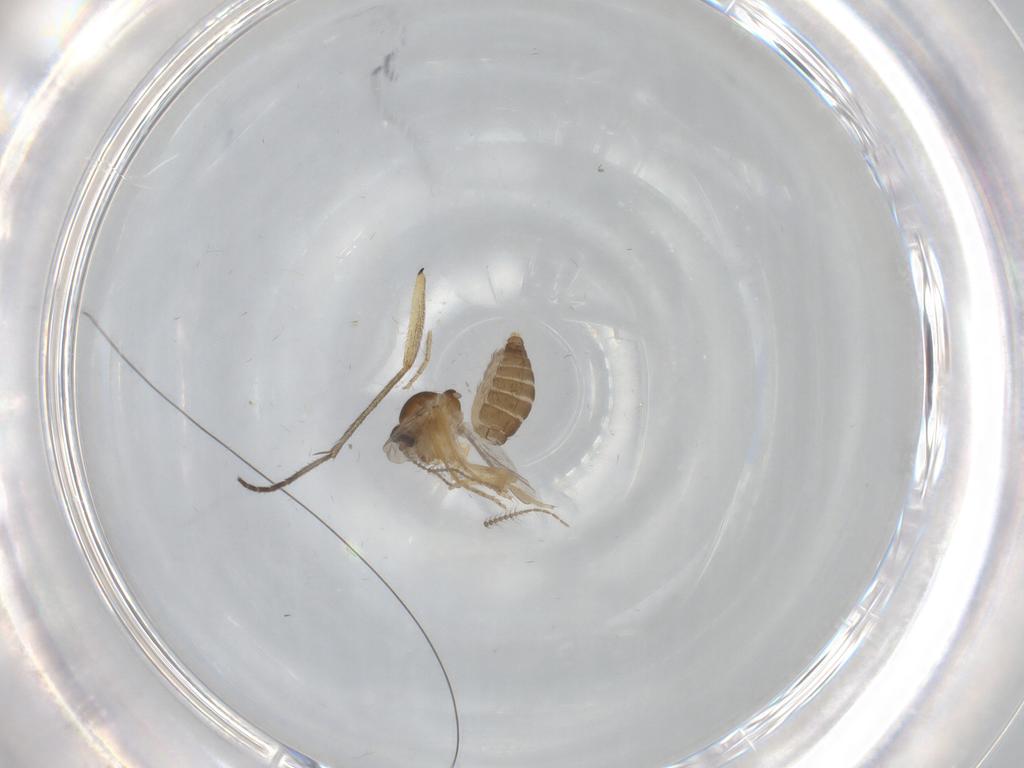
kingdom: Animalia
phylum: Arthropoda
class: Insecta
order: Diptera
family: Ceratopogonidae
